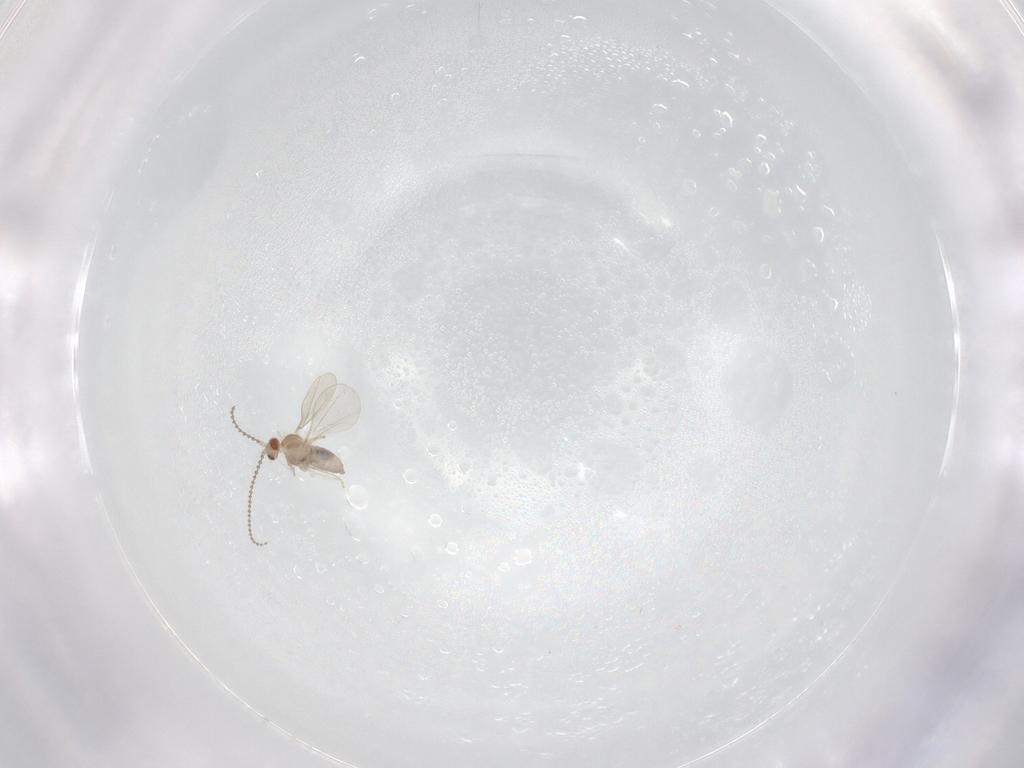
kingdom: Animalia
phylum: Arthropoda
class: Insecta
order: Diptera
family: Cecidomyiidae
